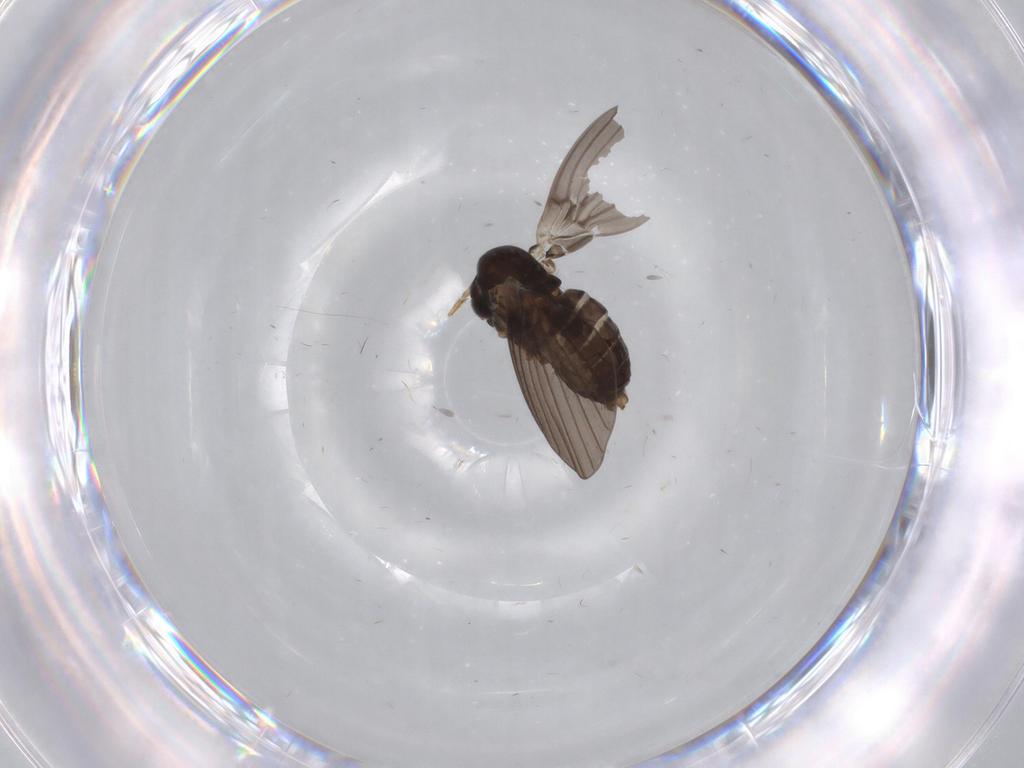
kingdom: Animalia
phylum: Arthropoda
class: Insecta
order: Diptera
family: Psychodidae
